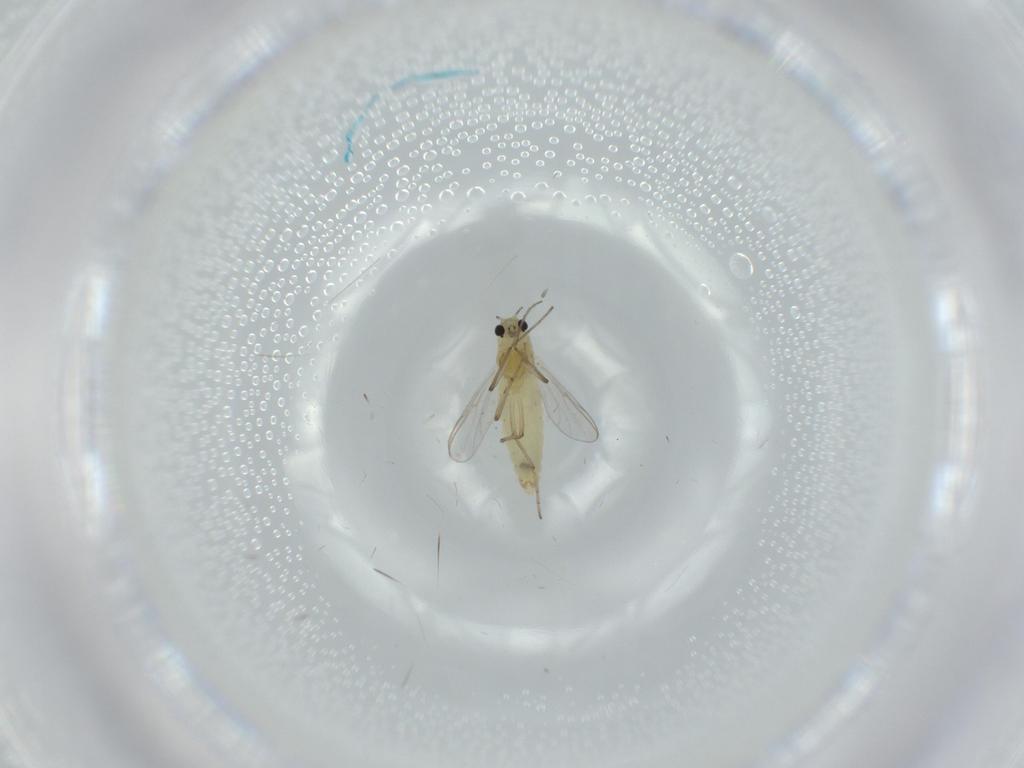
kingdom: Animalia
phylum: Arthropoda
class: Insecta
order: Diptera
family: Chironomidae
